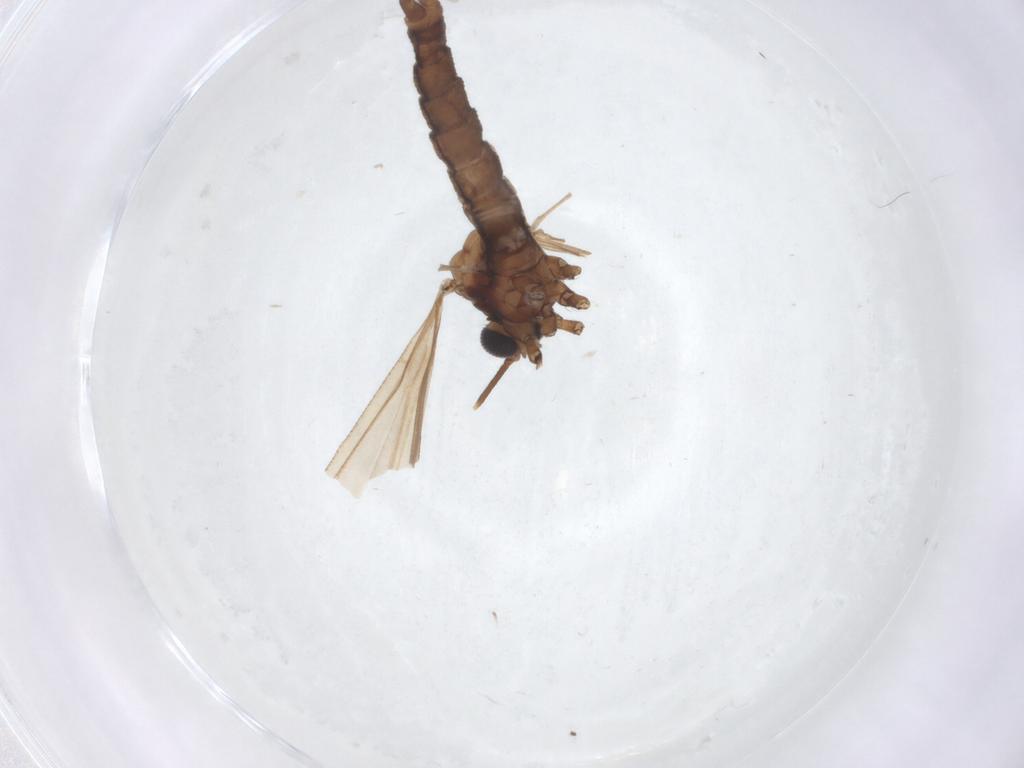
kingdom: Animalia
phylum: Arthropoda
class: Insecta
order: Diptera
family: Limoniidae
